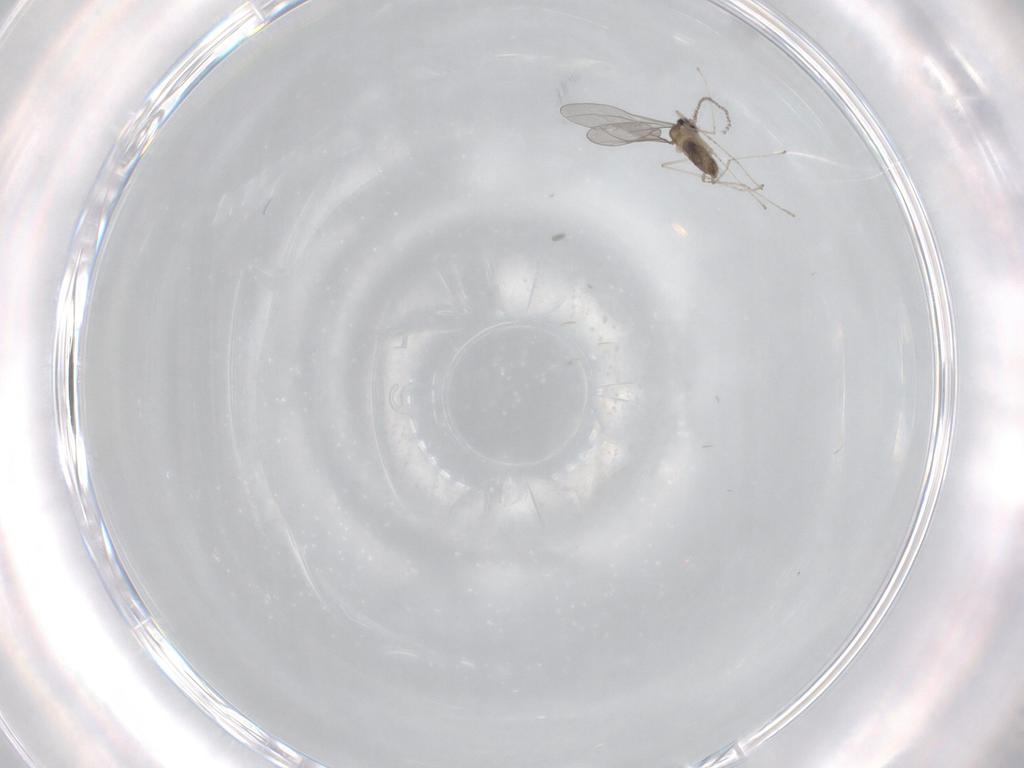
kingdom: Animalia
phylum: Arthropoda
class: Insecta
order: Diptera
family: Cecidomyiidae
